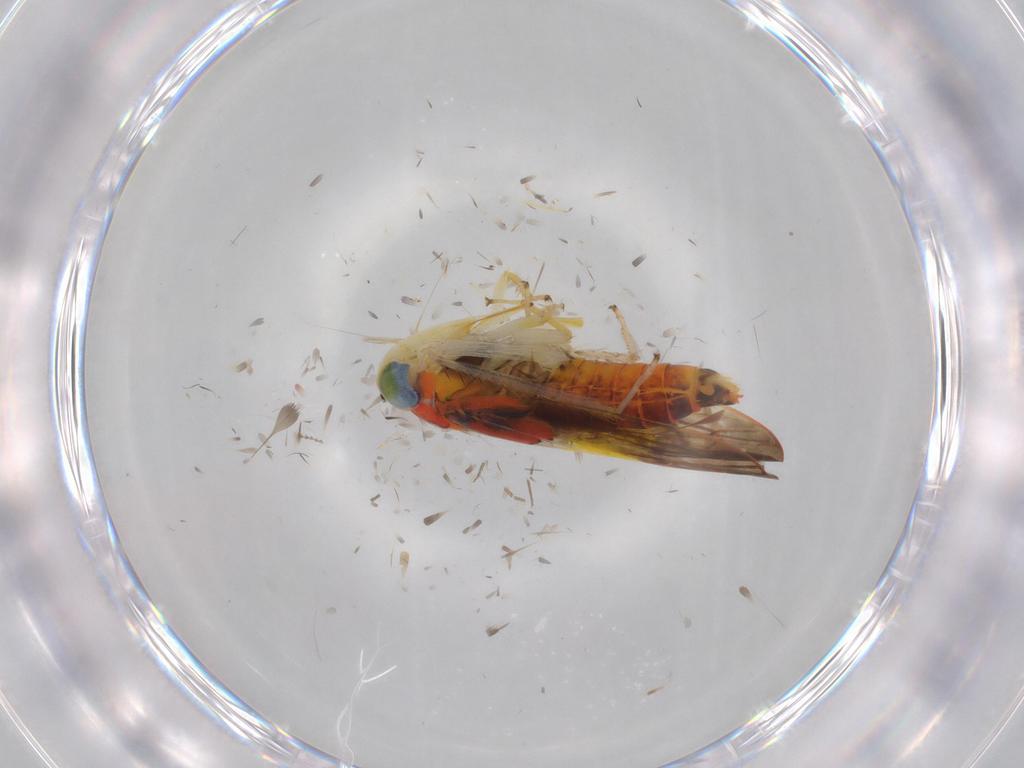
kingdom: Animalia
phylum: Arthropoda
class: Insecta
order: Hemiptera
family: Cicadellidae
